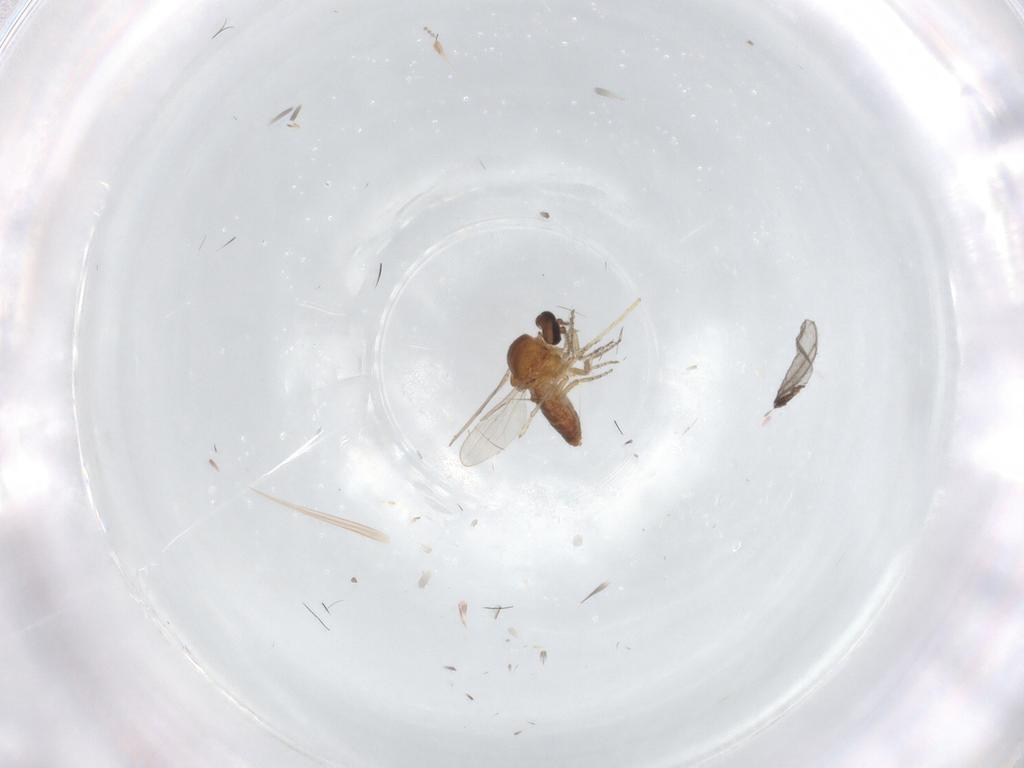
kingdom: Animalia
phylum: Arthropoda
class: Insecta
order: Diptera
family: Ceratopogonidae
